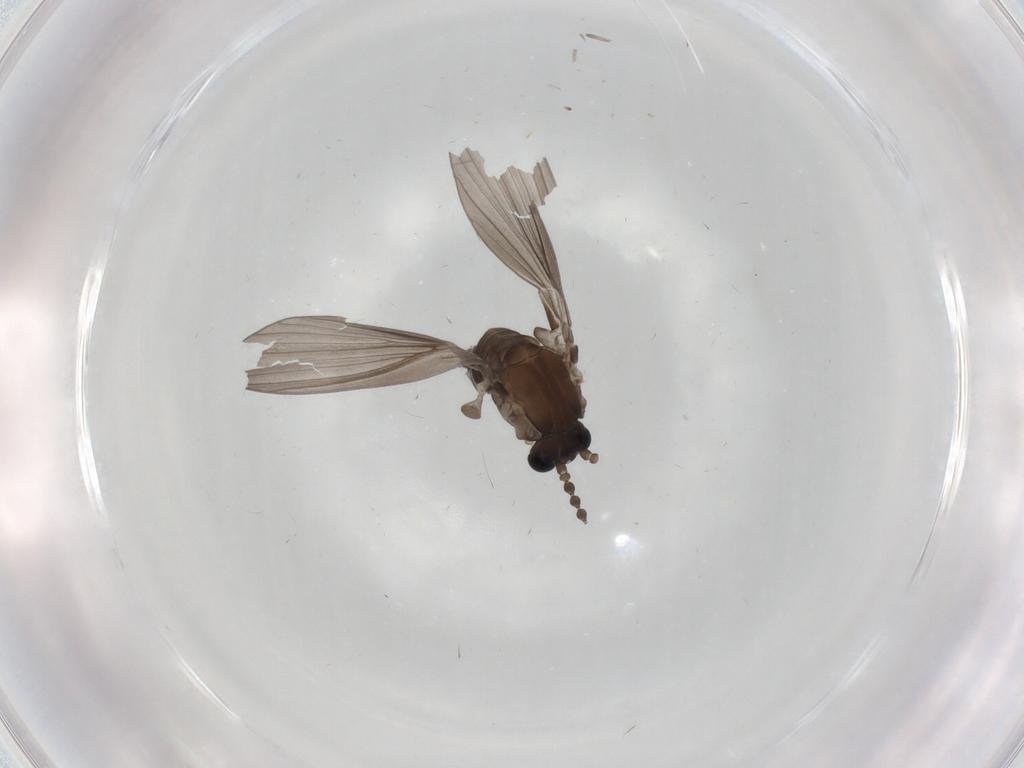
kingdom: Animalia
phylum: Arthropoda
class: Insecta
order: Diptera
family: Psychodidae
